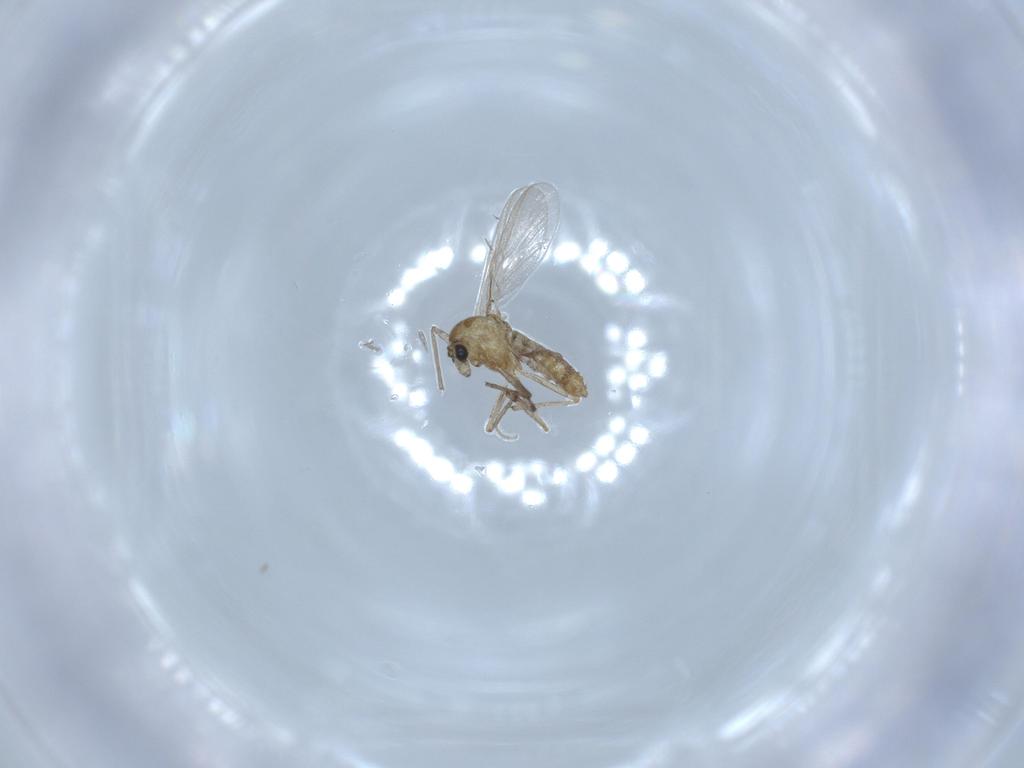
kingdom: Animalia
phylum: Arthropoda
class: Insecta
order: Diptera
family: Chironomidae
